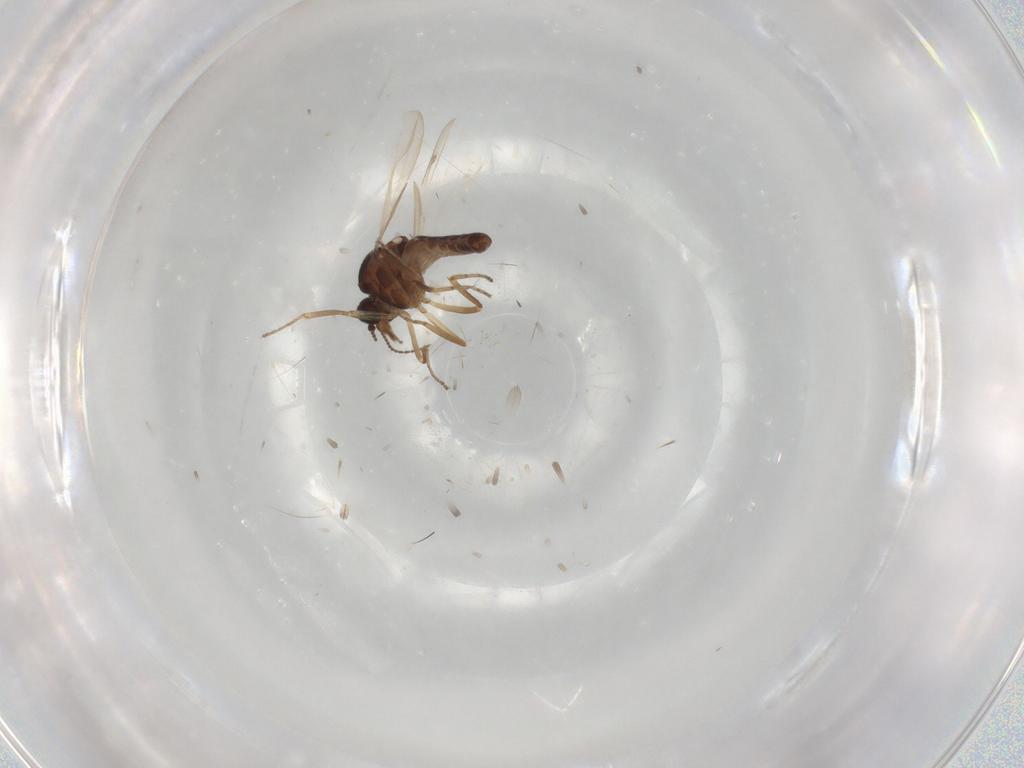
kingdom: Animalia
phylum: Arthropoda
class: Insecta
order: Diptera
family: Ceratopogonidae
